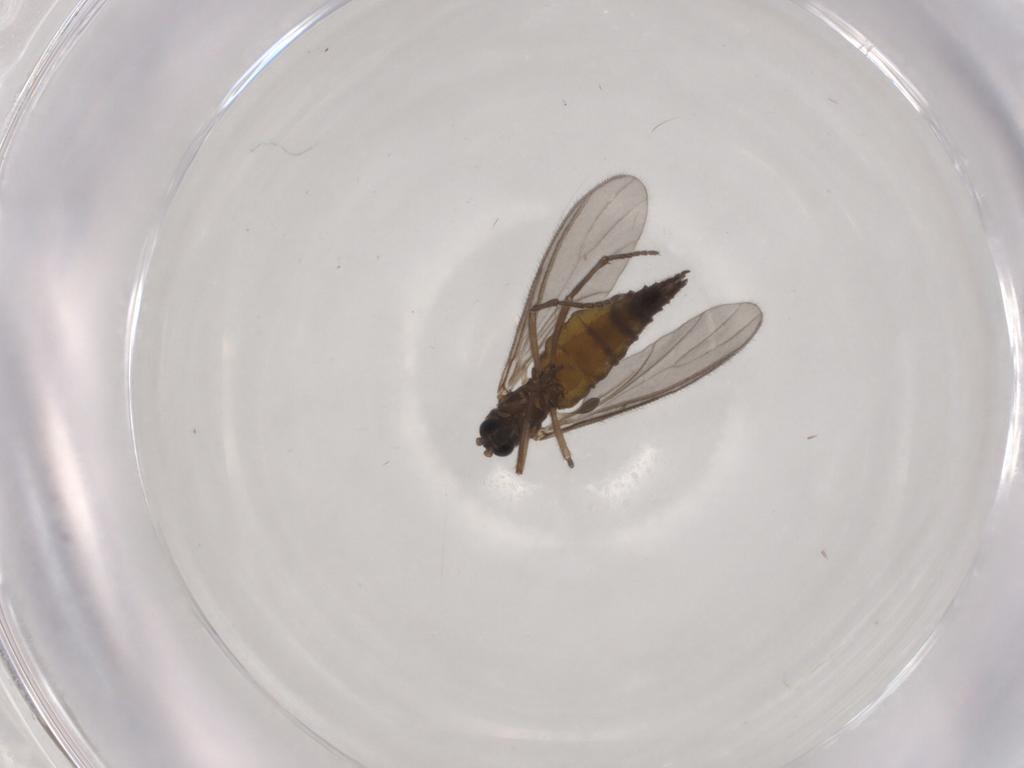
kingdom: Animalia
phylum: Arthropoda
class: Insecta
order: Diptera
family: Sciaridae
